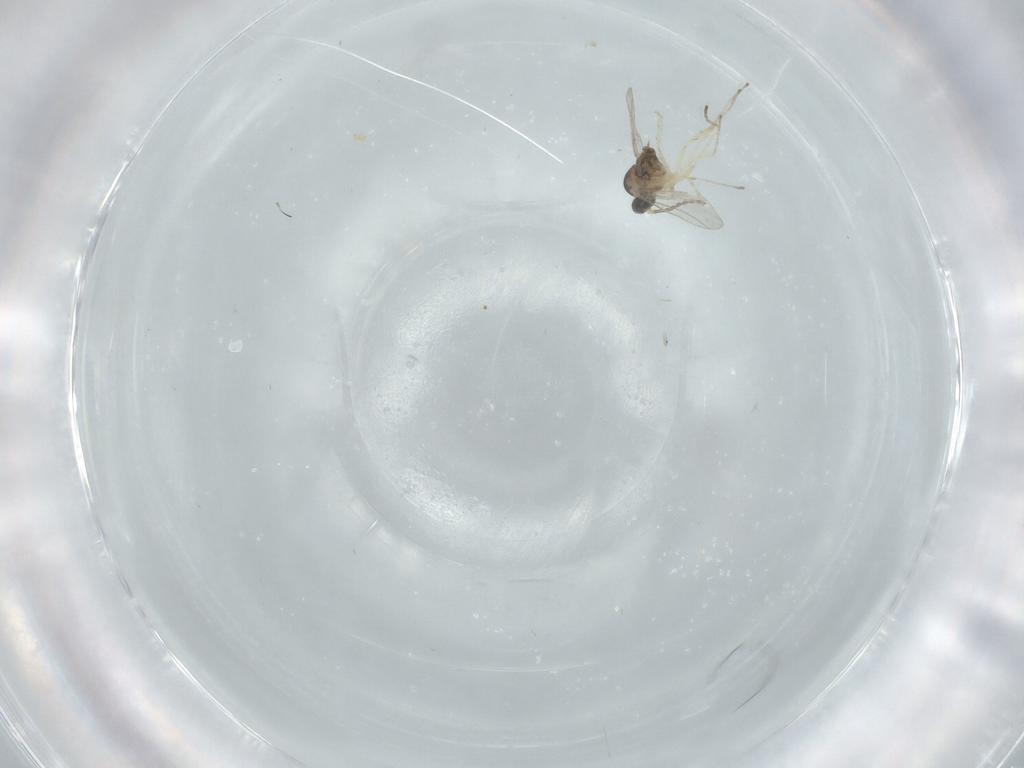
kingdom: Animalia
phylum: Arthropoda
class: Insecta
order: Diptera
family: Cecidomyiidae
